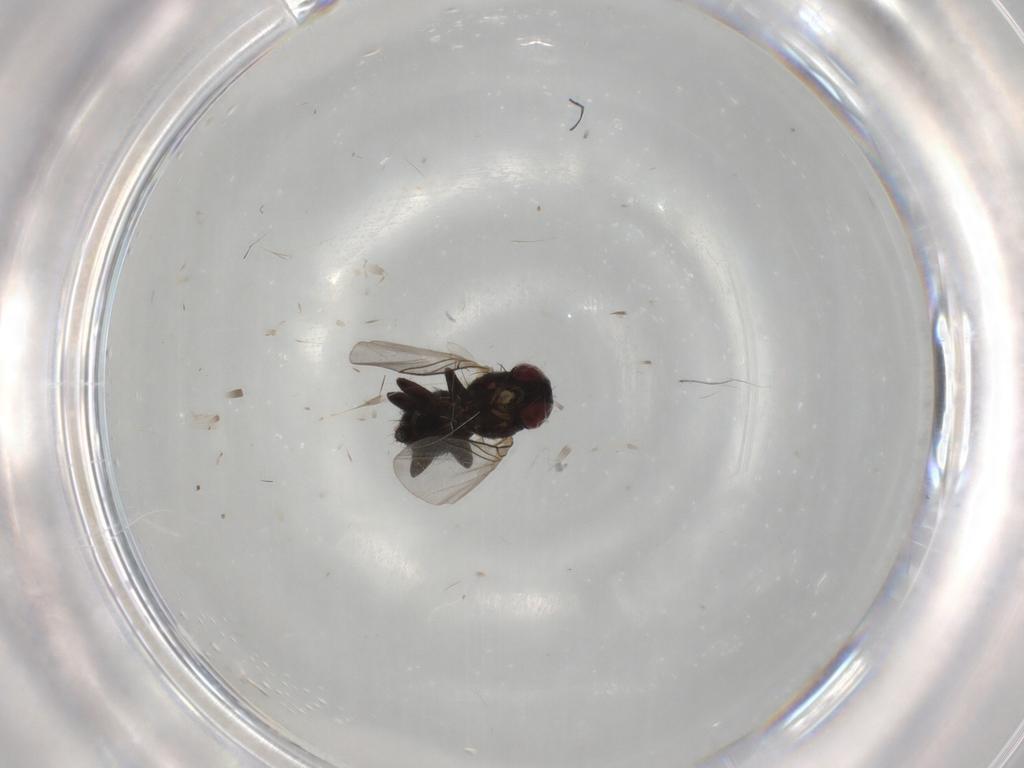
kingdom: Animalia
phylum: Arthropoda
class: Insecta
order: Diptera
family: Agromyzidae
